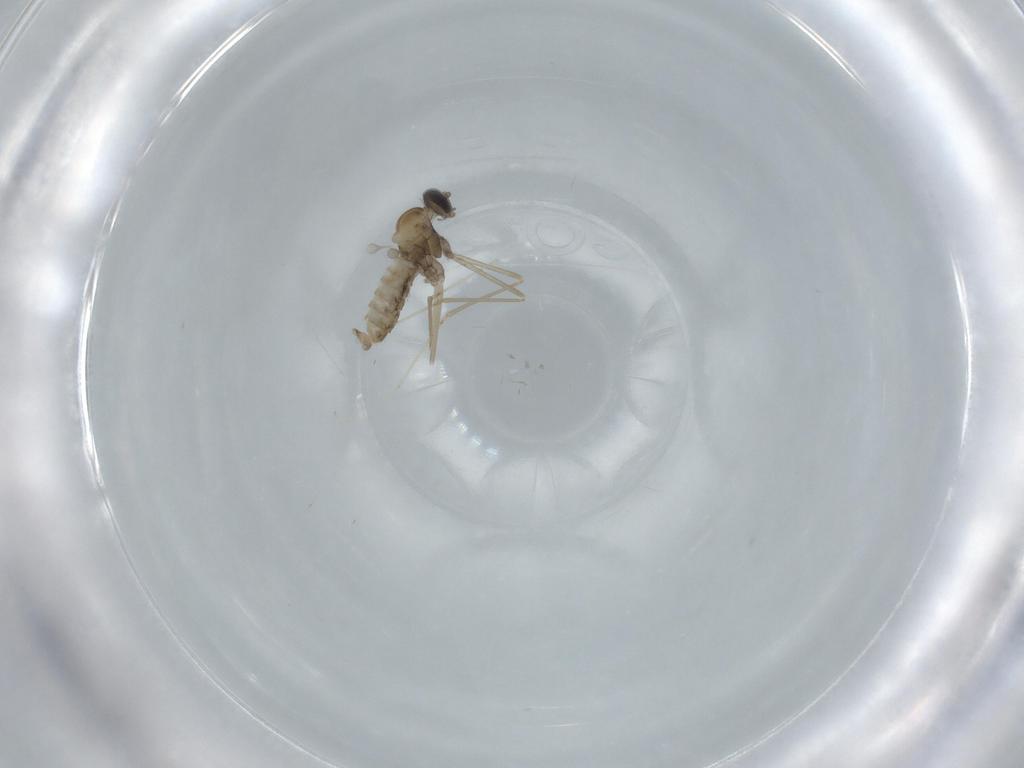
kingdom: Animalia
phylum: Arthropoda
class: Insecta
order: Diptera
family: Cecidomyiidae
